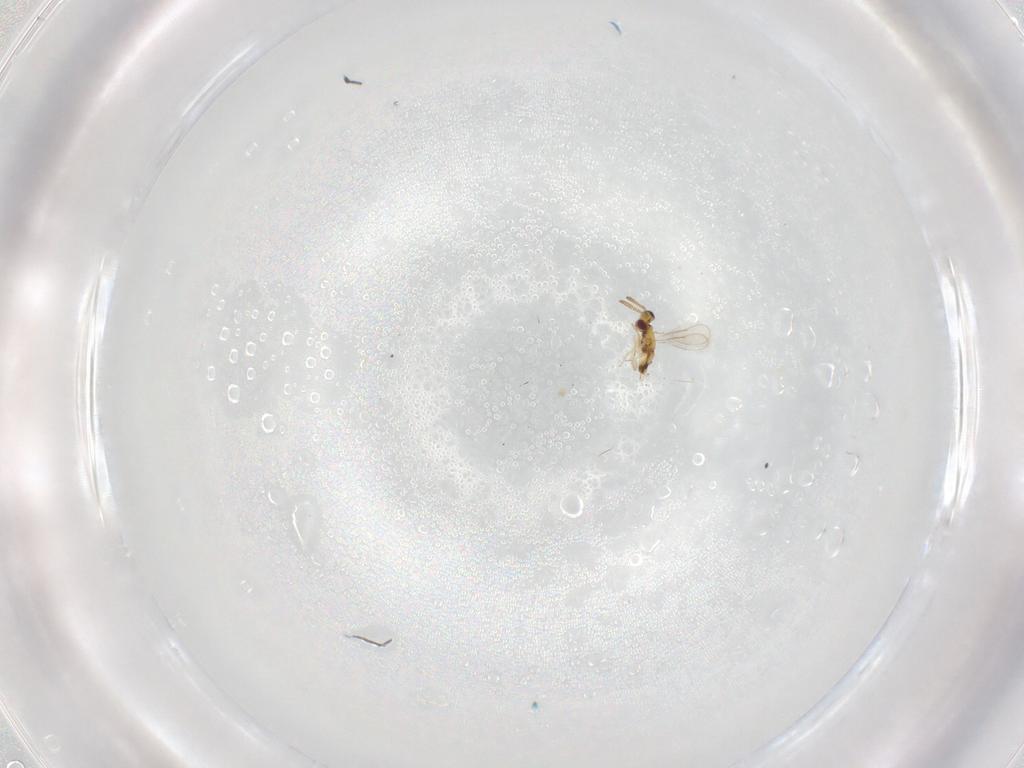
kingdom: Animalia
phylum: Arthropoda
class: Insecta
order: Hymenoptera
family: Aphelinidae
